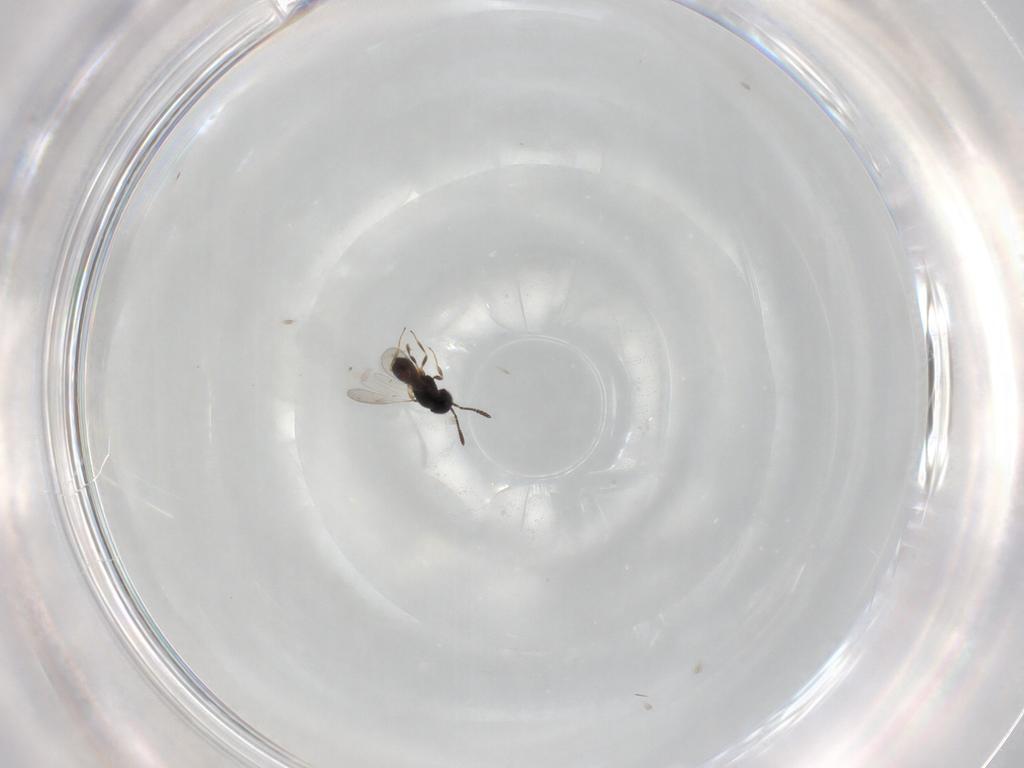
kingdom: Animalia
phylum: Arthropoda
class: Insecta
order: Hymenoptera
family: Scelionidae
